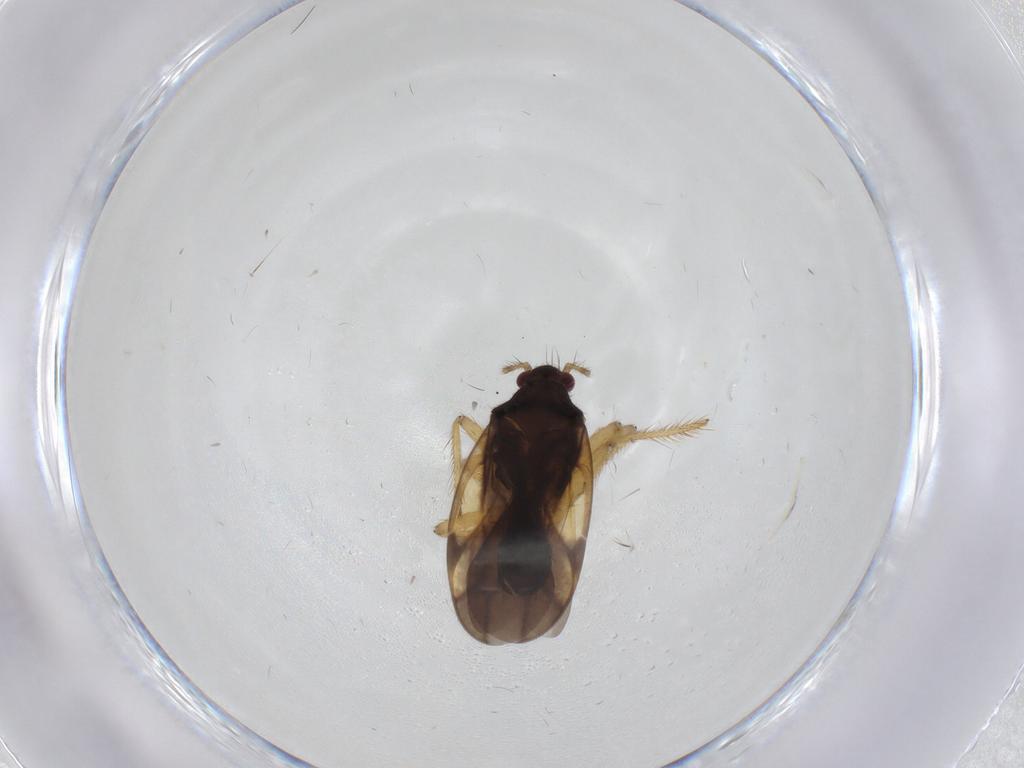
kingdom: Animalia
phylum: Arthropoda
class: Insecta
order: Hemiptera
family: Ceratocombidae
